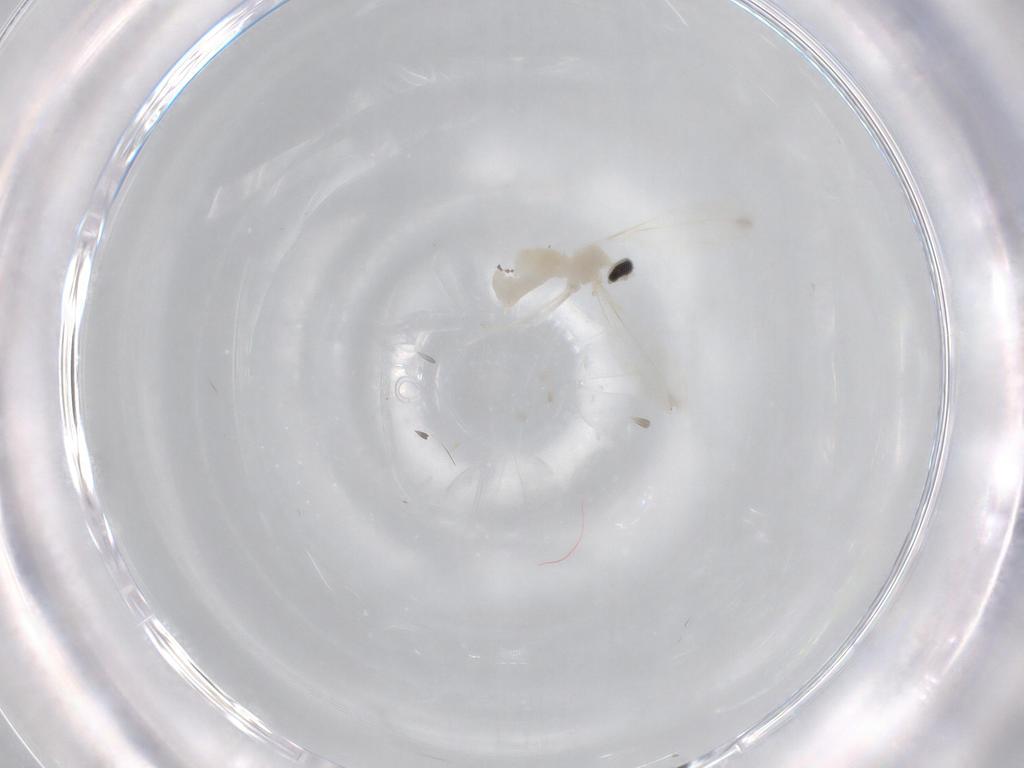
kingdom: Animalia
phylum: Arthropoda
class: Insecta
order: Diptera
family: Cecidomyiidae
